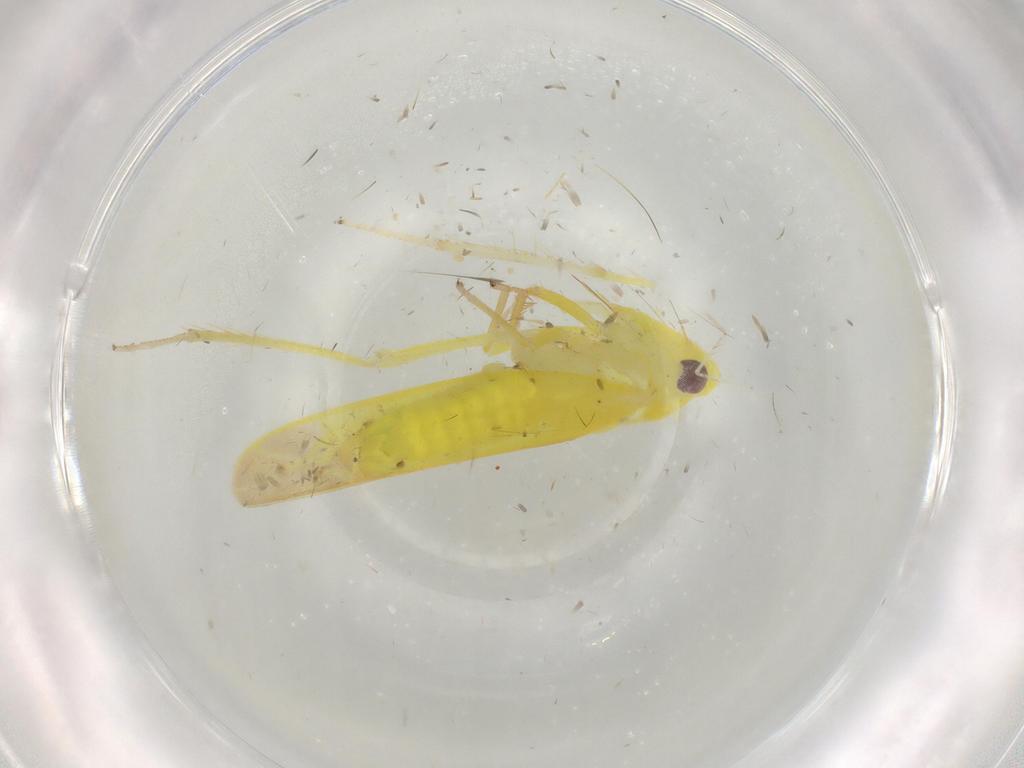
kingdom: Animalia
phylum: Arthropoda
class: Insecta
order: Hemiptera
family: Cicadellidae
